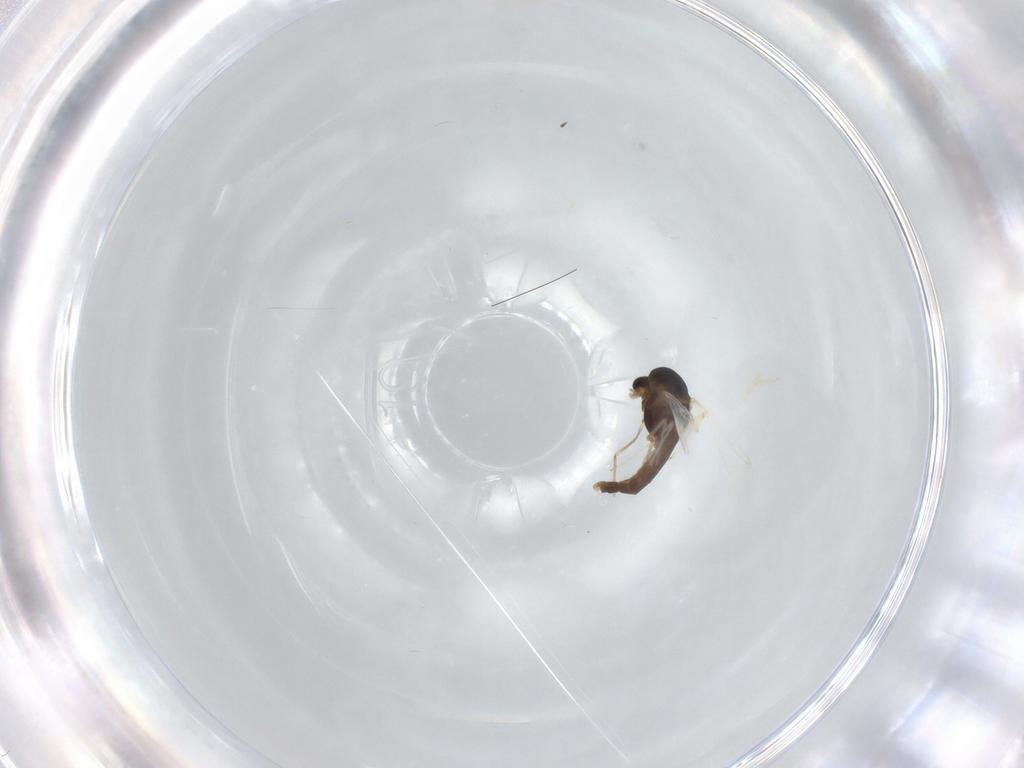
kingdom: Animalia
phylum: Arthropoda
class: Insecta
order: Diptera
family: Chironomidae
